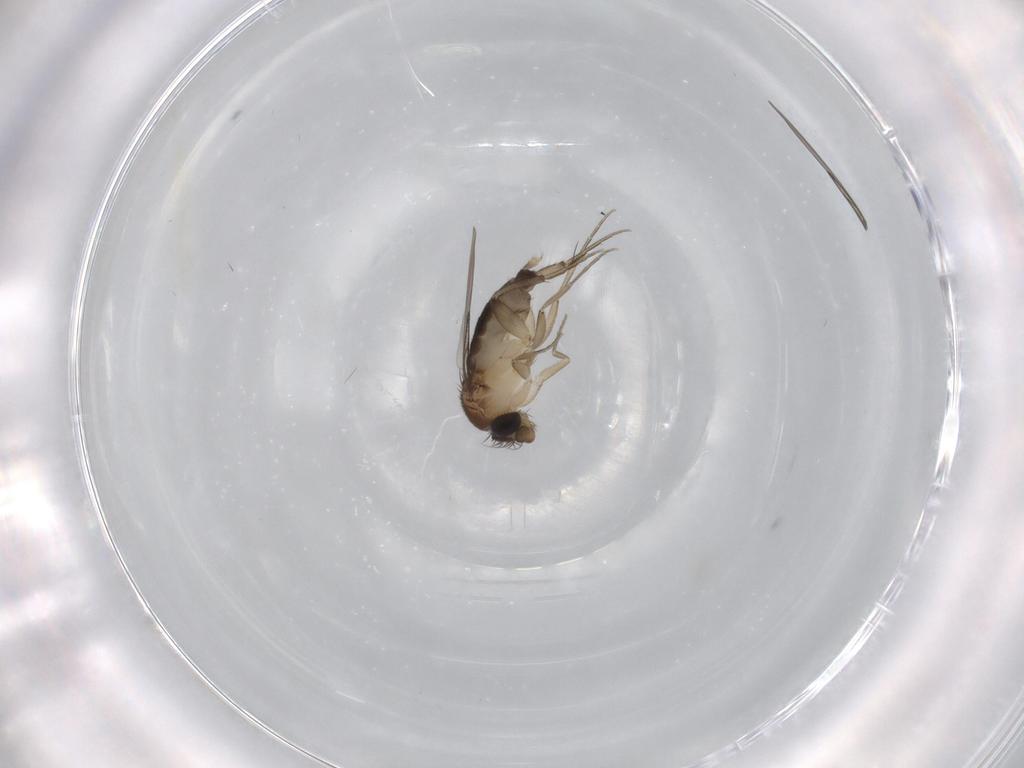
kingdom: Animalia
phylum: Arthropoda
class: Insecta
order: Diptera
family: Phoridae
